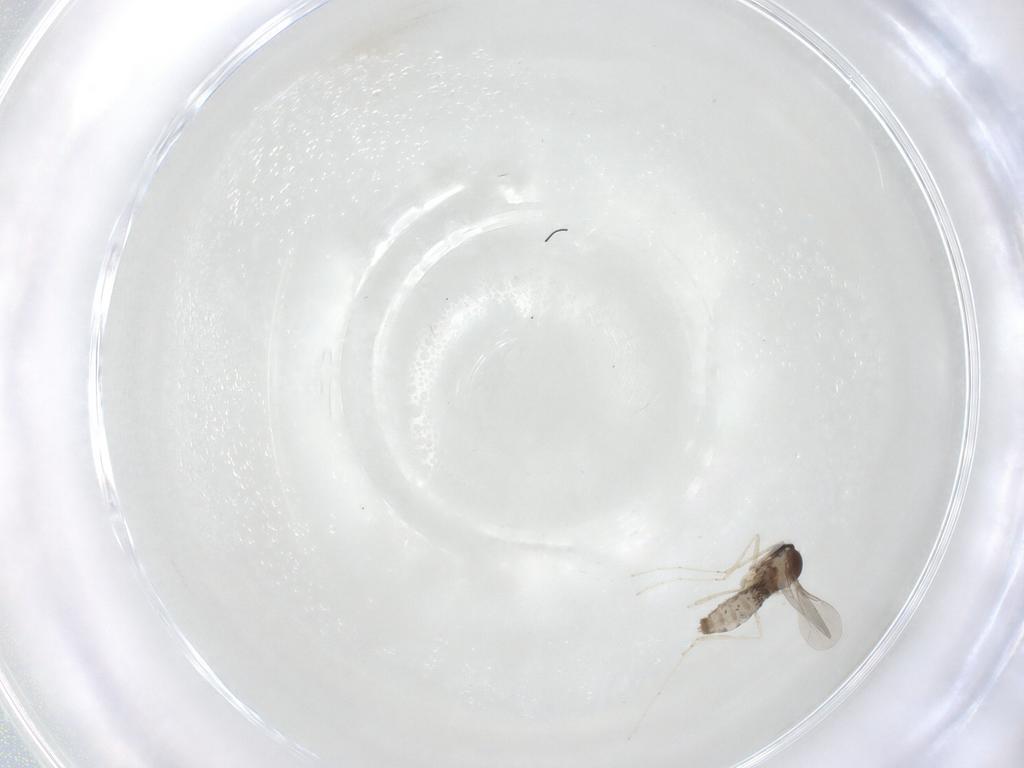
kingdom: Animalia
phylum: Arthropoda
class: Insecta
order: Diptera
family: Cecidomyiidae
